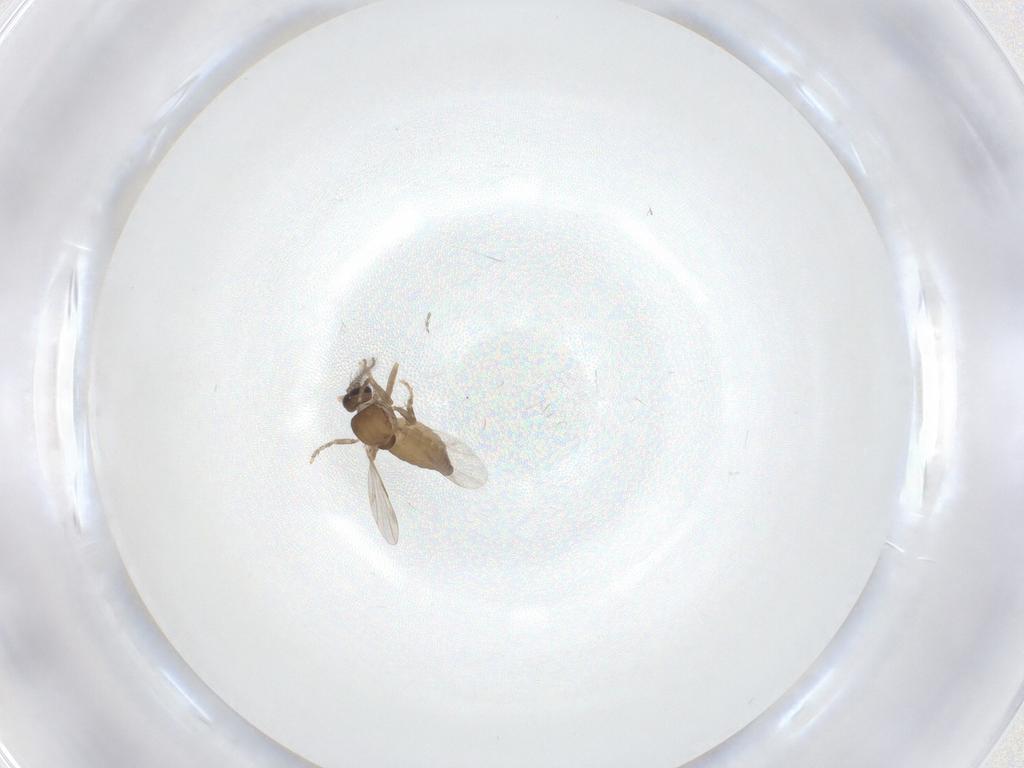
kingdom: Animalia
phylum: Arthropoda
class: Insecta
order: Diptera
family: Ceratopogonidae
